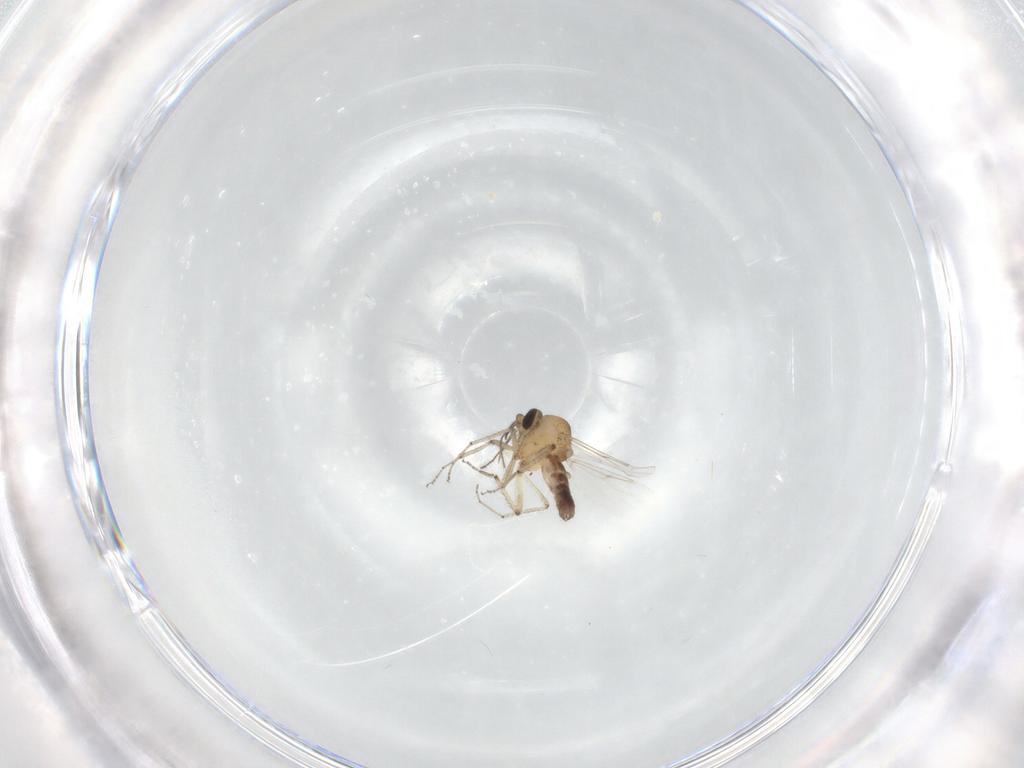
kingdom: Animalia
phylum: Arthropoda
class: Insecta
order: Diptera
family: Ceratopogonidae
